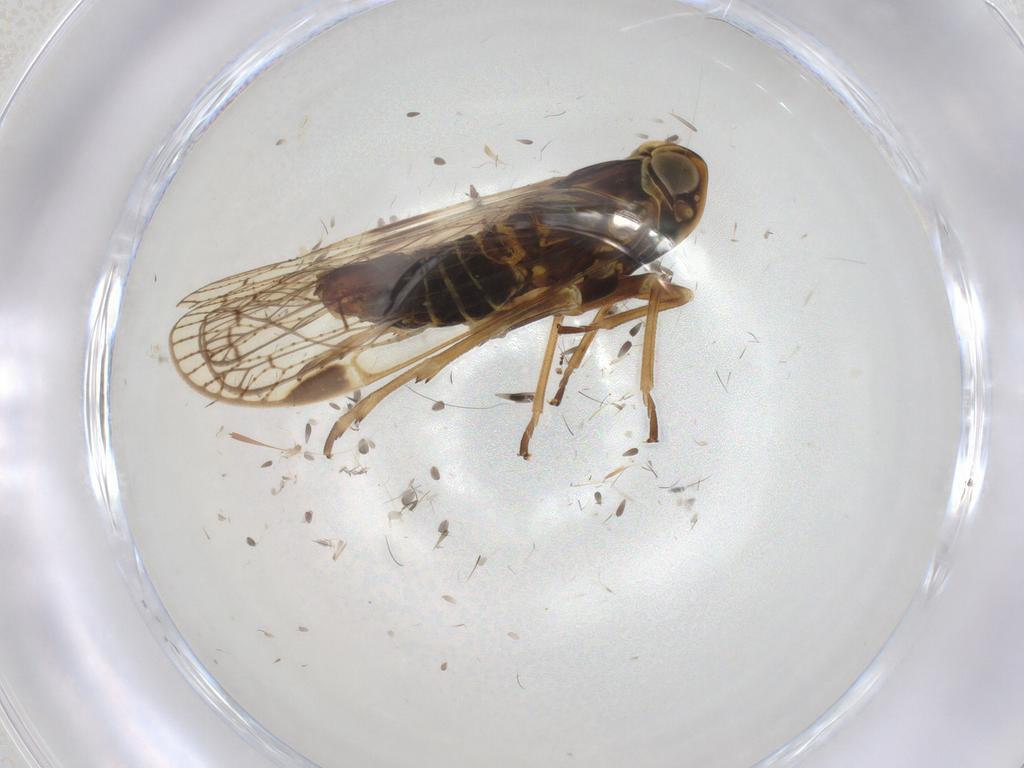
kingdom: Animalia
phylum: Arthropoda
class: Insecta
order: Hemiptera
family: Cixiidae
